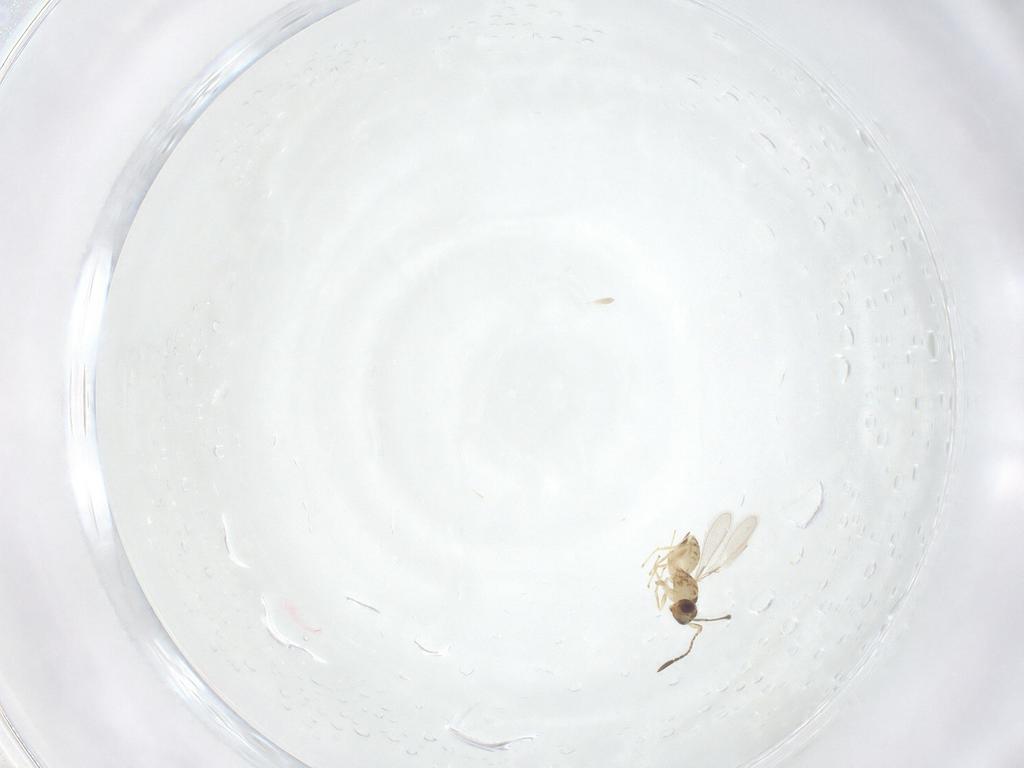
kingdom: Animalia
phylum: Arthropoda
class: Insecta
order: Hymenoptera
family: Mymaridae
